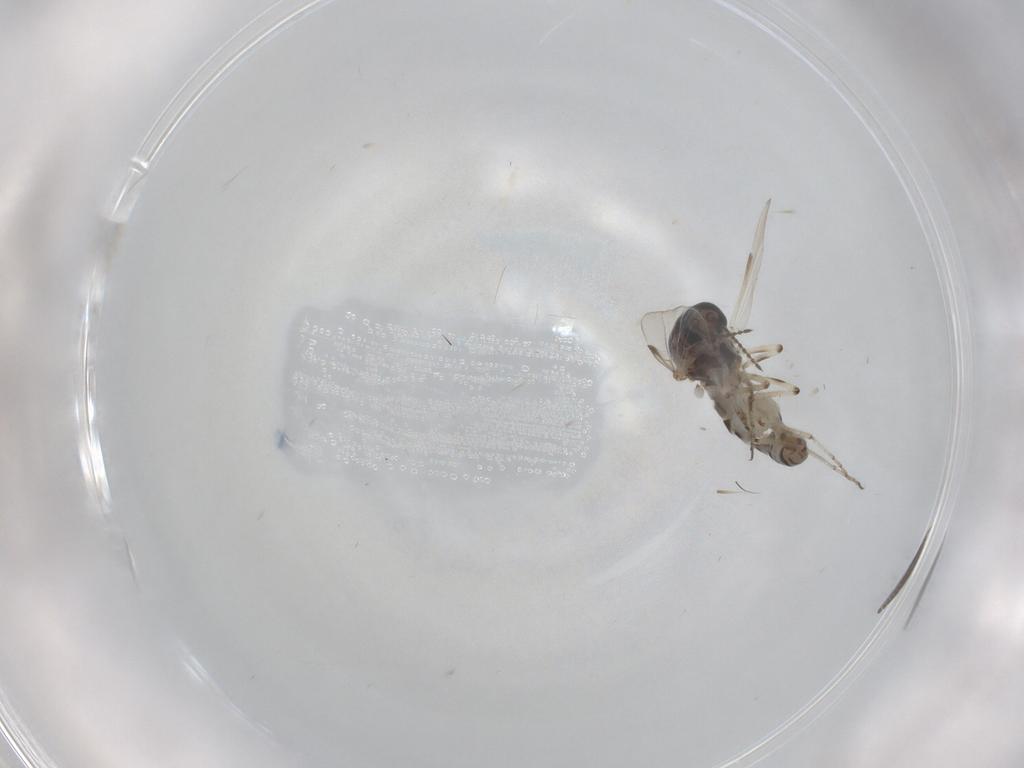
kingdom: Animalia
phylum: Arthropoda
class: Insecta
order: Diptera
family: Ceratopogonidae
